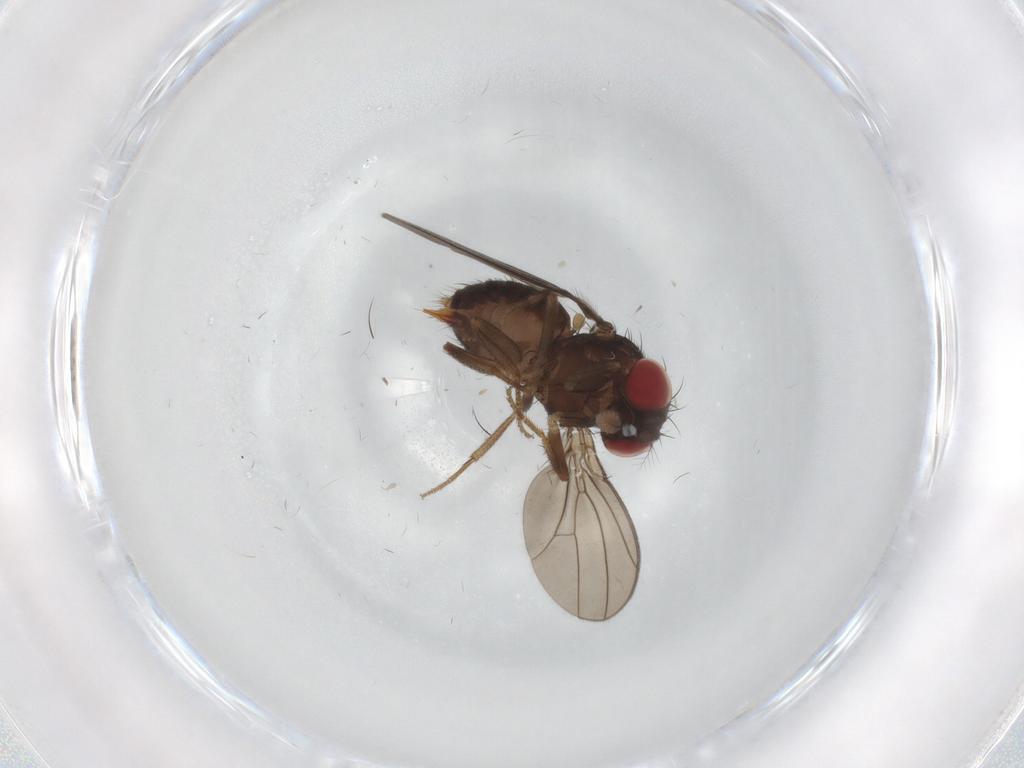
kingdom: Animalia
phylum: Arthropoda
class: Insecta
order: Diptera
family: Drosophilidae
